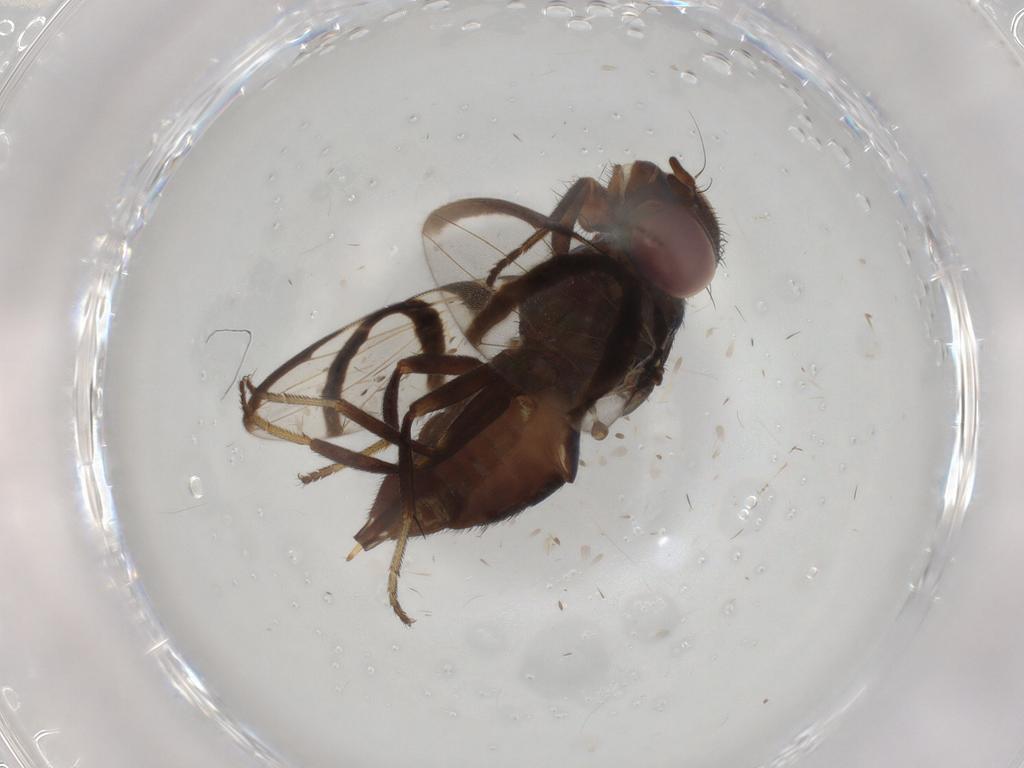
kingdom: Animalia
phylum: Arthropoda
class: Insecta
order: Diptera
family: Ulidiidae
